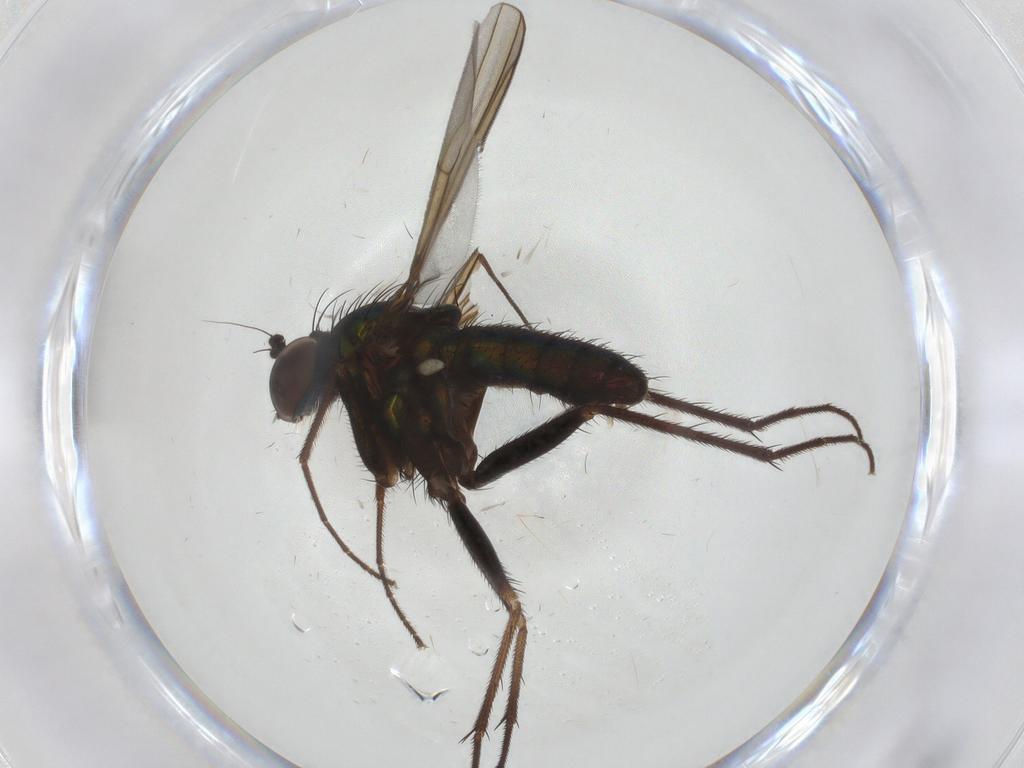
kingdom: Animalia
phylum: Arthropoda
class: Insecta
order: Diptera
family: Dolichopodidae
